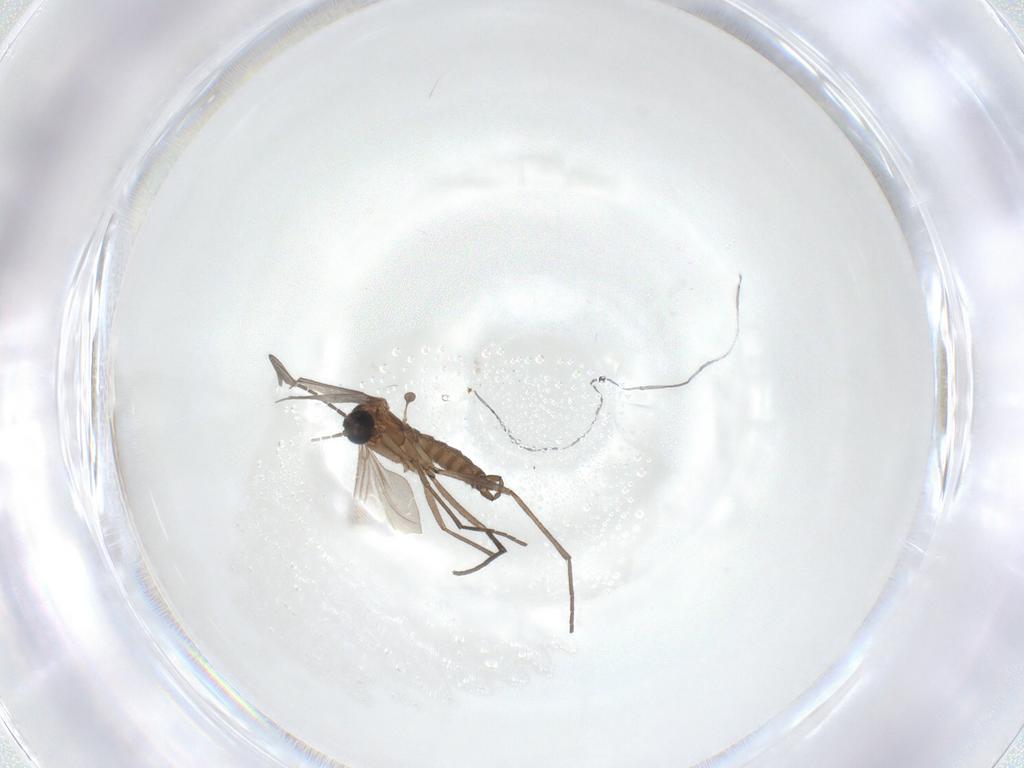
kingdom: Animalia
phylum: Arthropoda
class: Insecta
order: Diptera
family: Sciaridae
